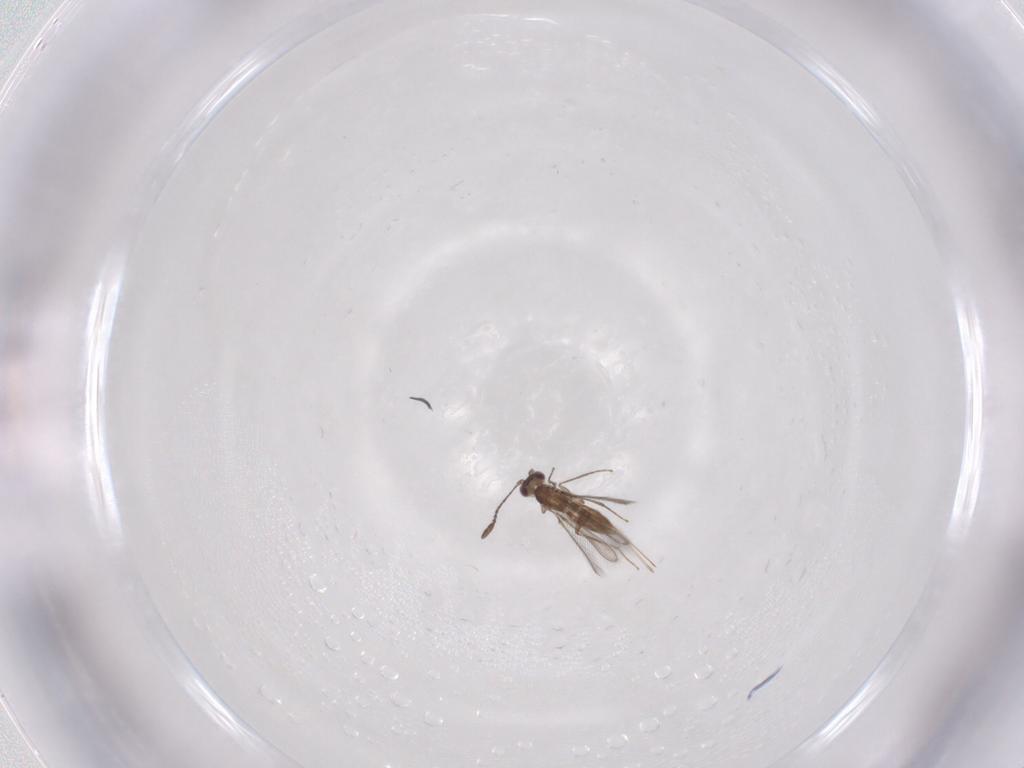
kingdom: Animalia
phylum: Arthropoda
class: Insecta
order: Hymenoptera
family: Mymaridae
